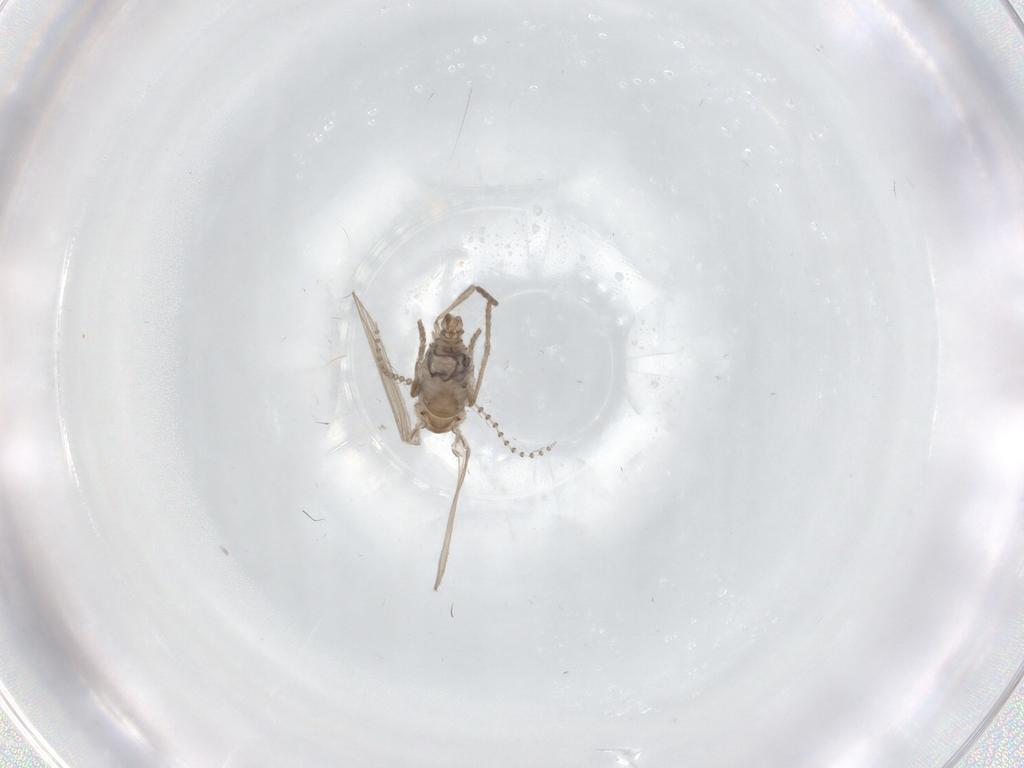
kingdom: Animalia
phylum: Arthropoda
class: Insecta
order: Diptera
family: Psychodidae
